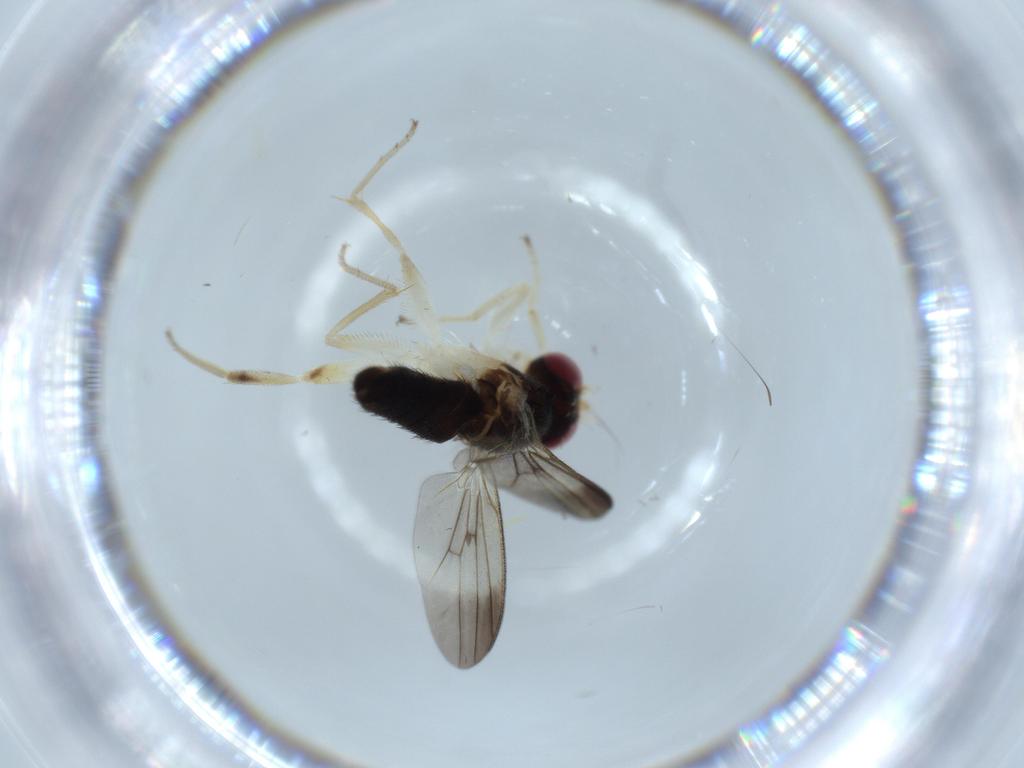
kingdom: Animalia
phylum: Arthropoda
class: Insecta
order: Diptera
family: Clusiidae
